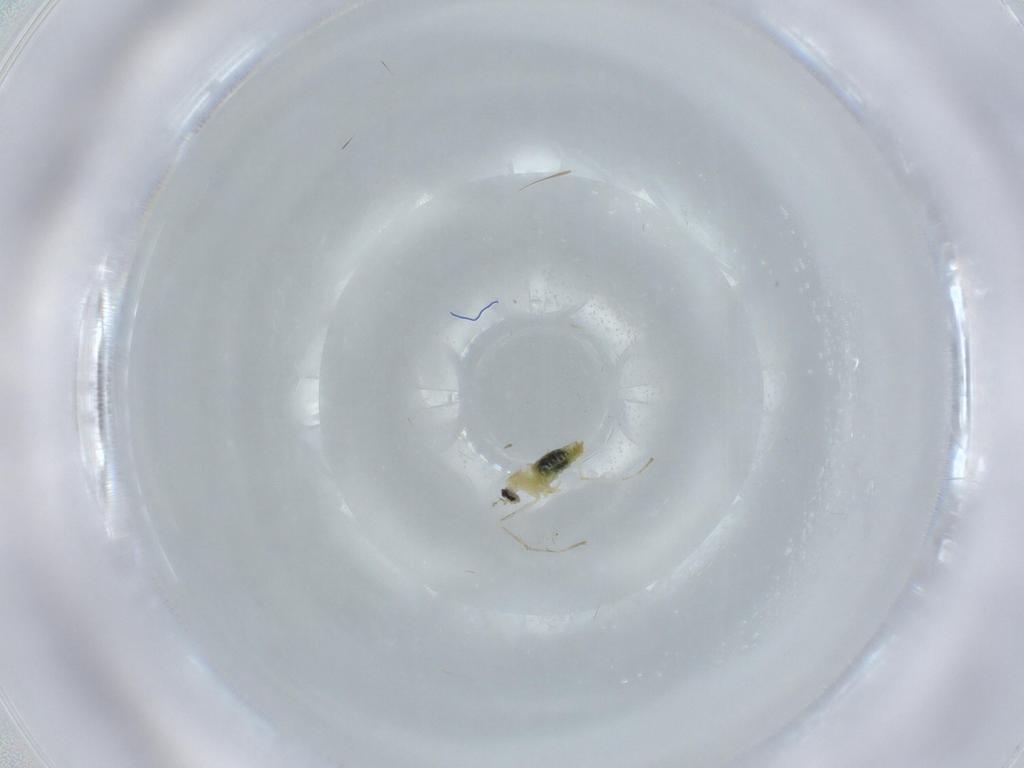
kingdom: Animalia
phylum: Arthropoda
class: Insecta
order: Diptera
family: Cecidomyiidae
